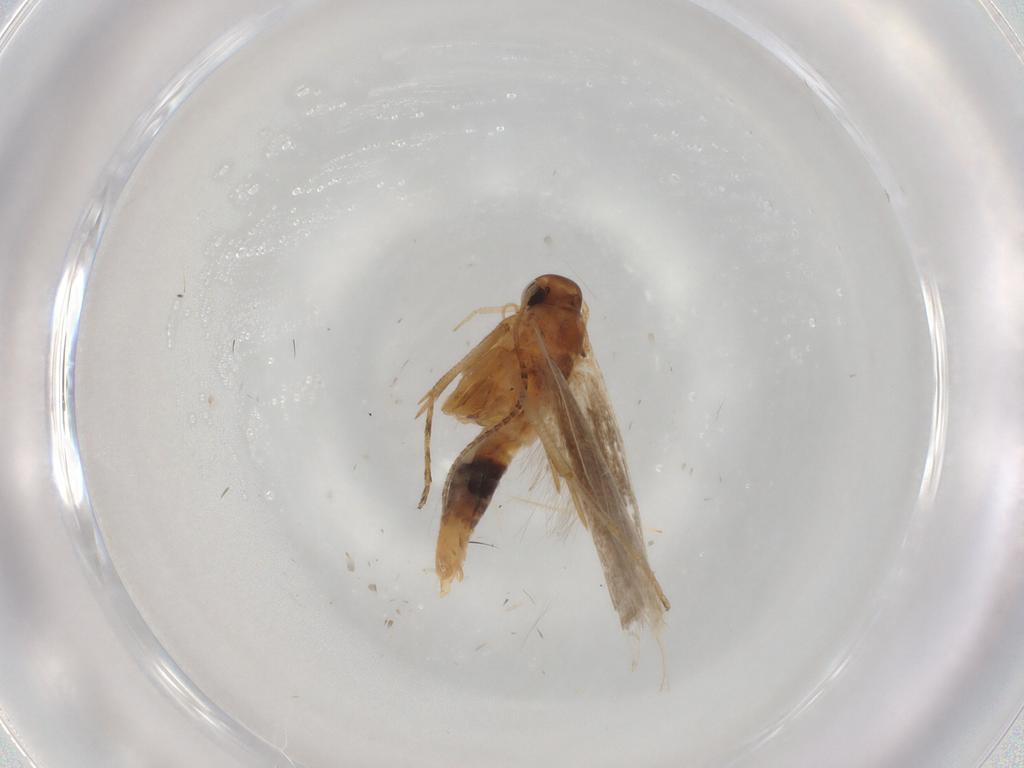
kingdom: Animalia
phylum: Arthropoda
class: Insecta
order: Lepidoptera
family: Gelechiidae
